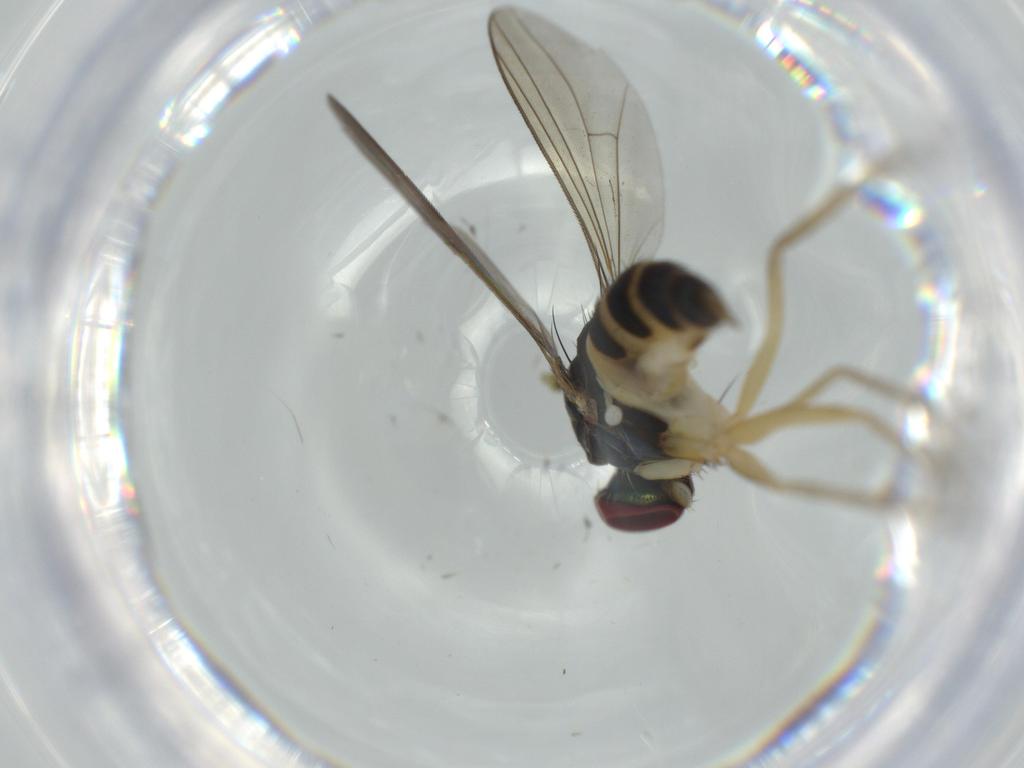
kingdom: Animalia
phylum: Arthropoda
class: Insecta
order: Diptera
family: Dolichopodidae
